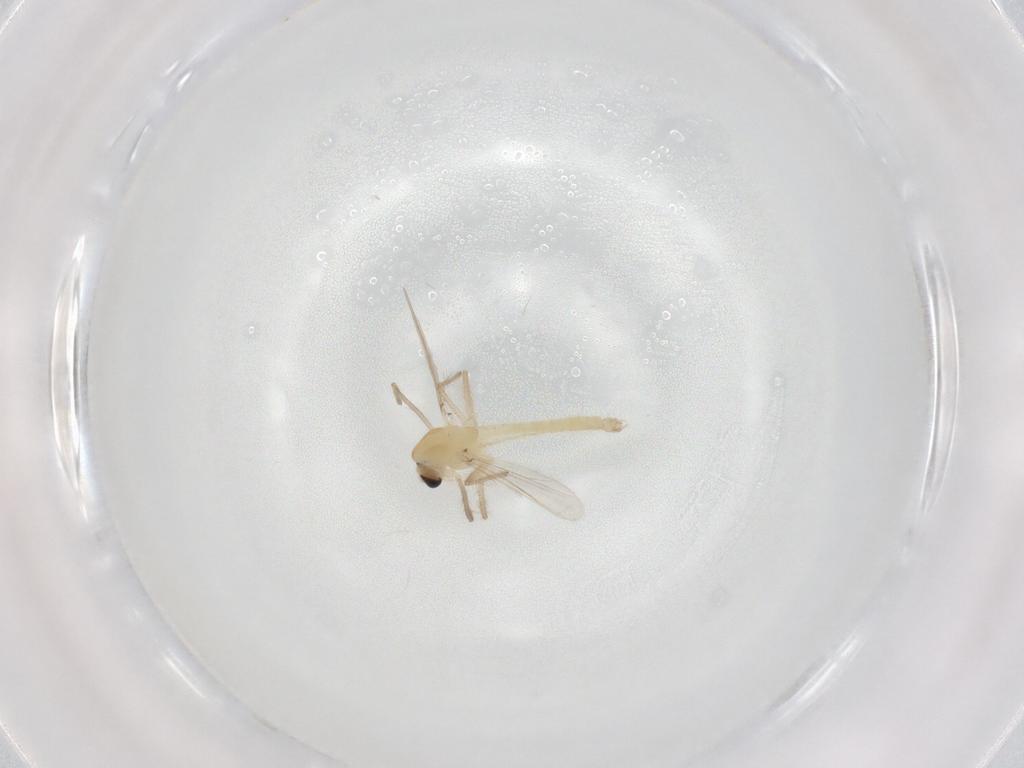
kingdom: Animalia
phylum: Arthropoda
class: Insecta
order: Diptera
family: Chironomidae
